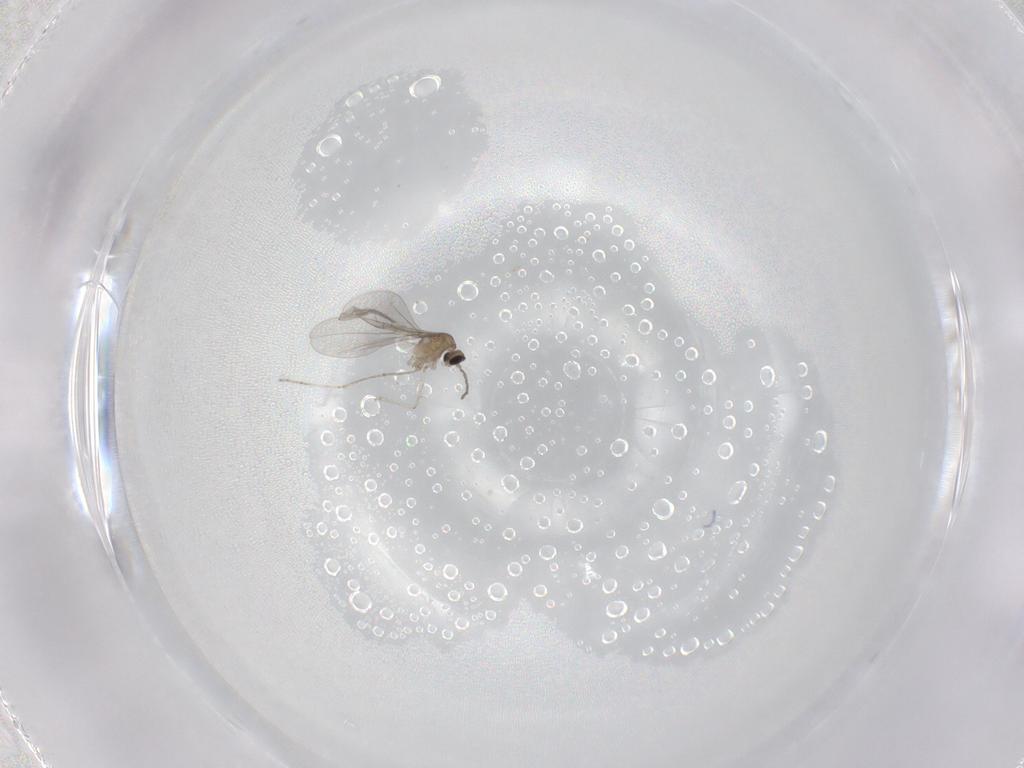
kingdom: Animalia
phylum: Arthropoda
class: Insecta
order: Diptera
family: Cecidomyiidae
